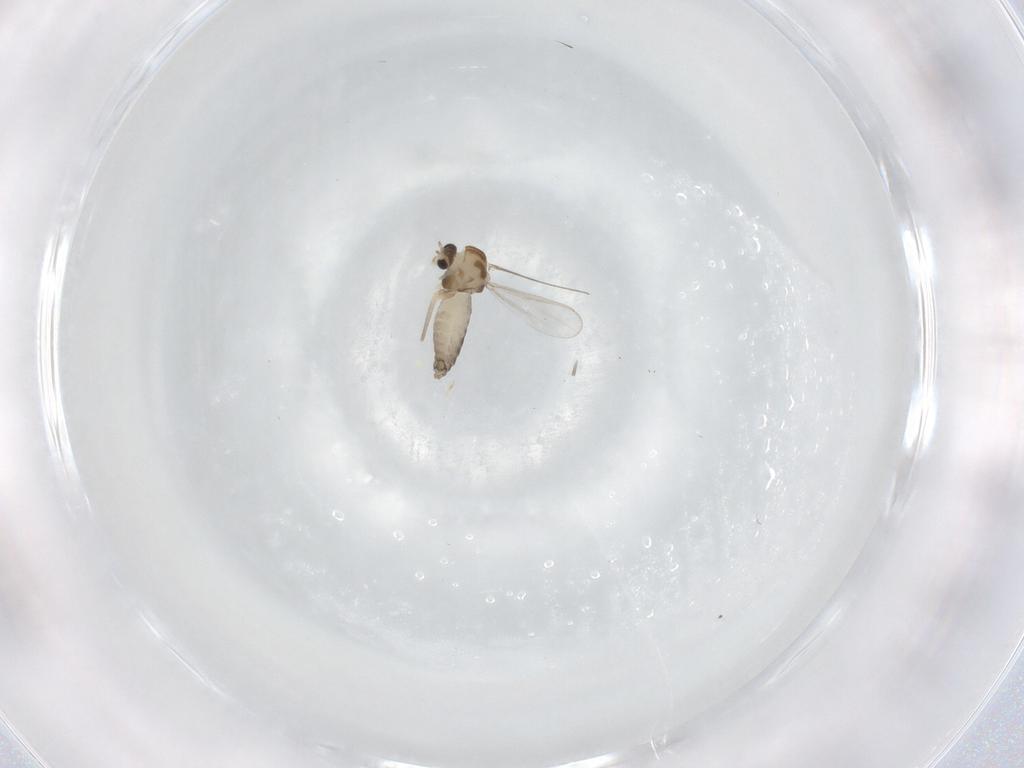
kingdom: Animalia
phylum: Arthropoda
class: Insecta
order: Diptera
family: Chironomidae
